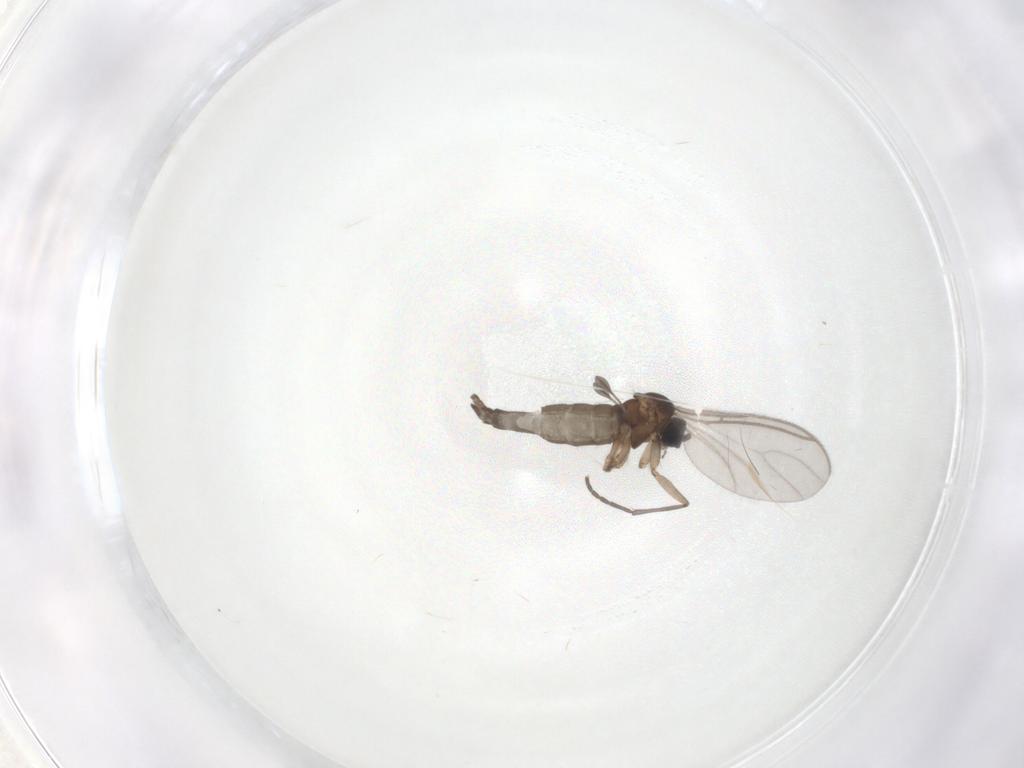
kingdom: Animalia
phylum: Arthropoda
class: Insecta
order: Diptera
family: Sciaridae
